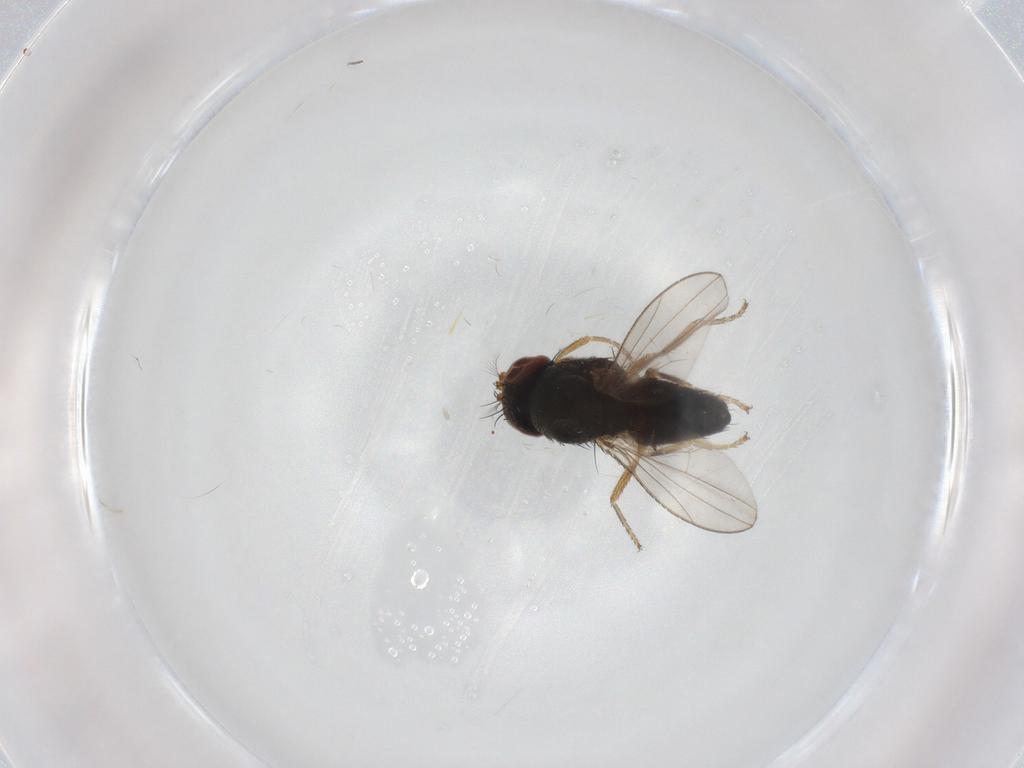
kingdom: Animalia
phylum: Arthropoda
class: Insecta
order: Diptera
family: Ephydridae
